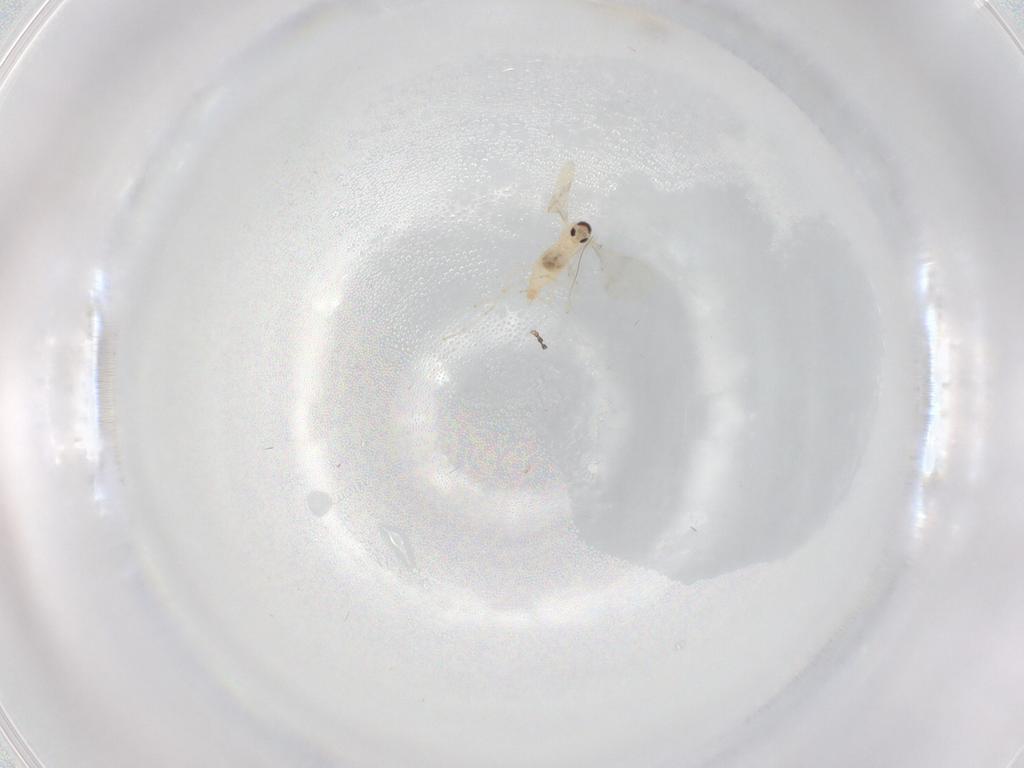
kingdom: Animalia
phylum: Arthropoda
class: Insecta
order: Diptera
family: Cecidomyiidae
